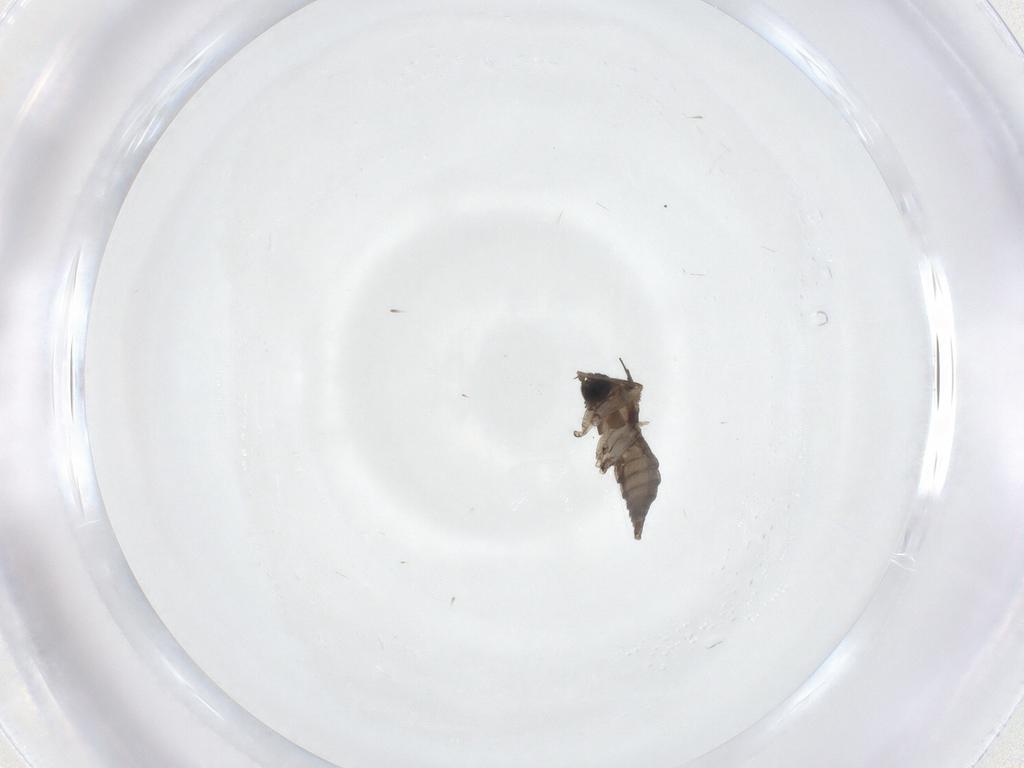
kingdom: Animalia
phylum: Arthropoda
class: Insecta
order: Diptera
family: Sciaridae
